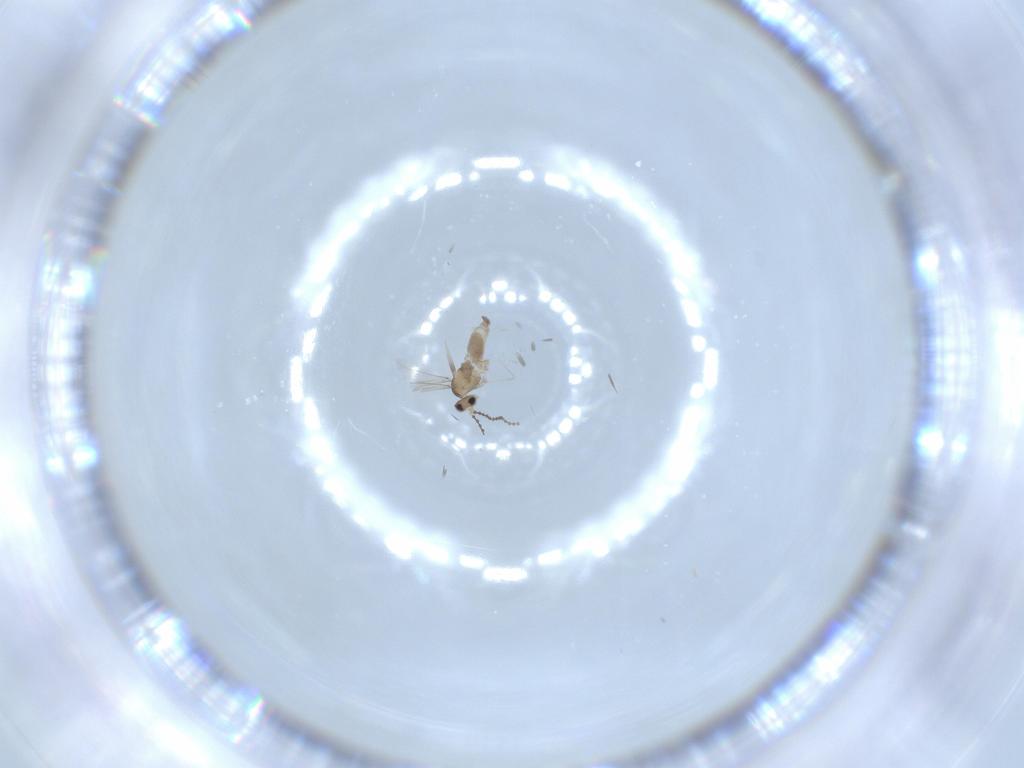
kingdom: Animalia
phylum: Arthropoda
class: Insecta
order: Diptera
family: Cecidomyiidae
